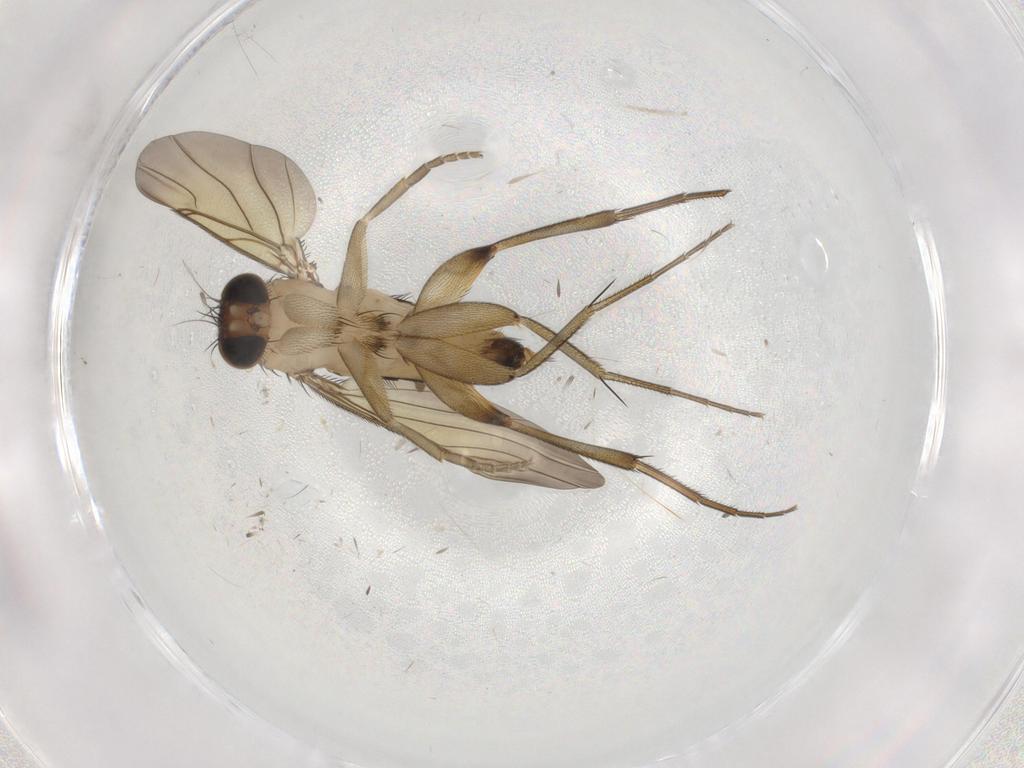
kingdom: Animalia
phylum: Arthropoda
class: Insecta
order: Diptera
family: Phoridae
